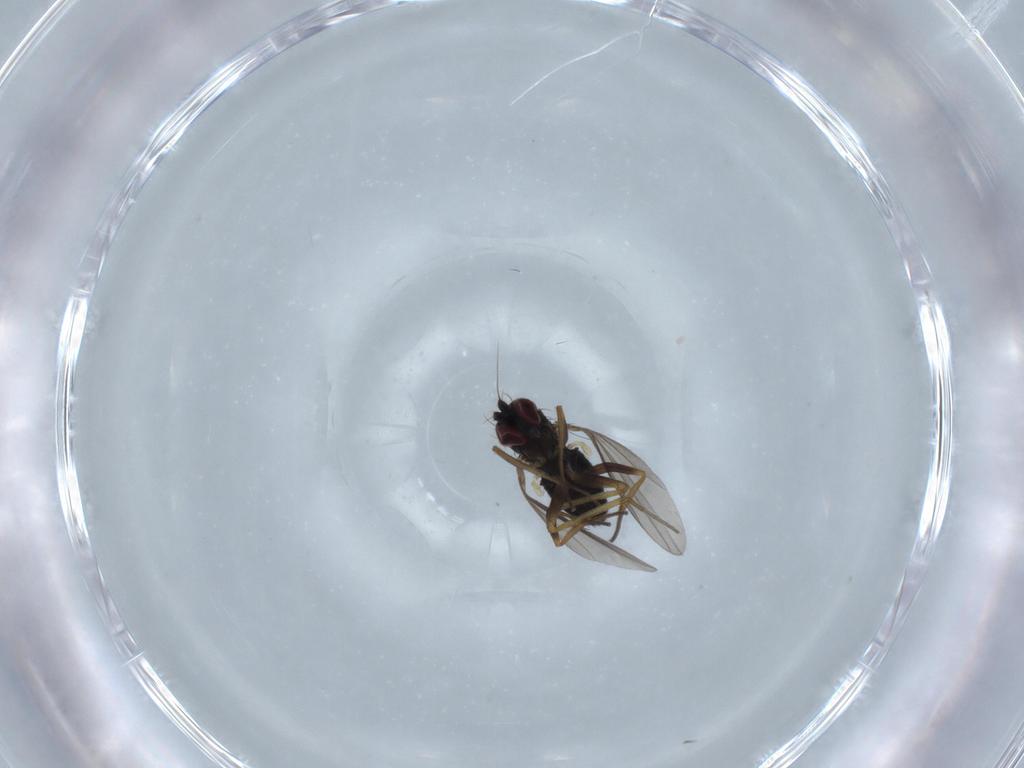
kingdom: Animalia
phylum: Arthropoda
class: Insecta
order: Diptera
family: Dolichopodidae
